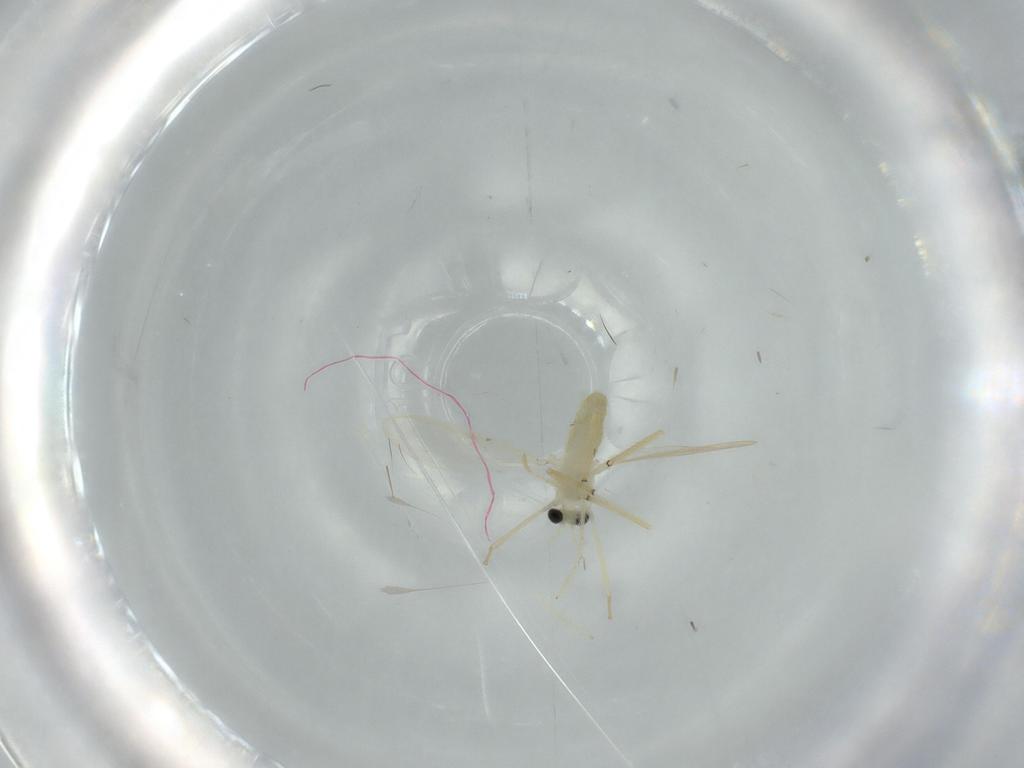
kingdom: Animalia
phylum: Arthropoda
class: Insecta
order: Diptera
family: Chironomidae
